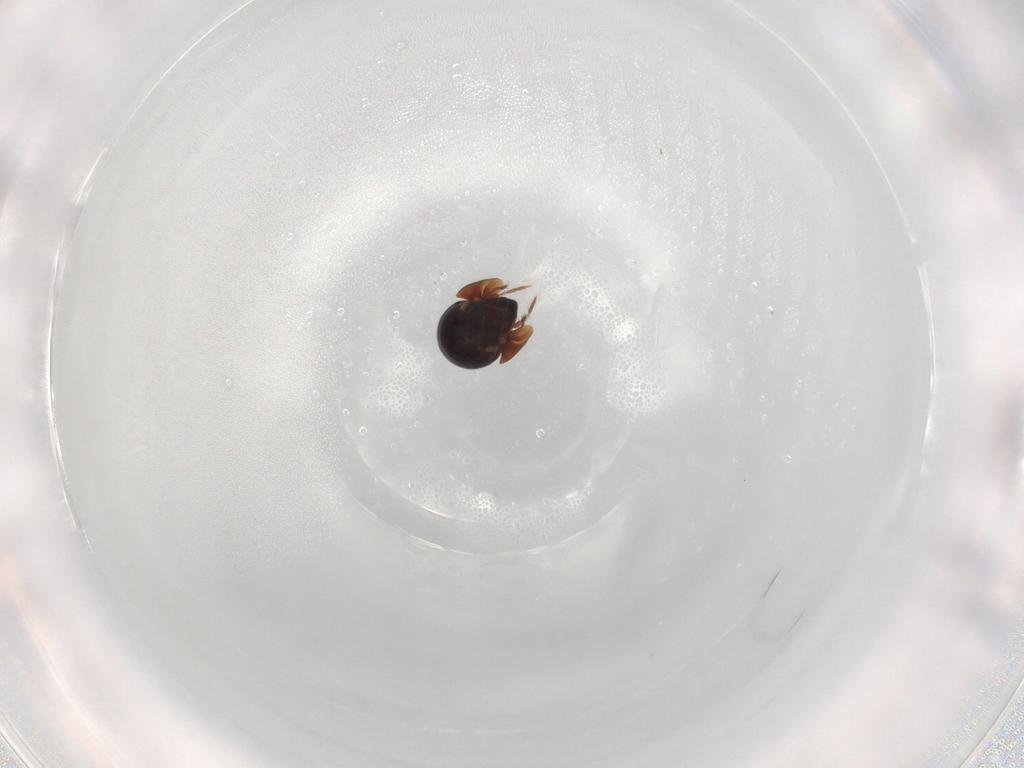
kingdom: Animalia
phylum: Arthropoda
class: Arachnida
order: Sarcoptiformes
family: Ceratozetidae
